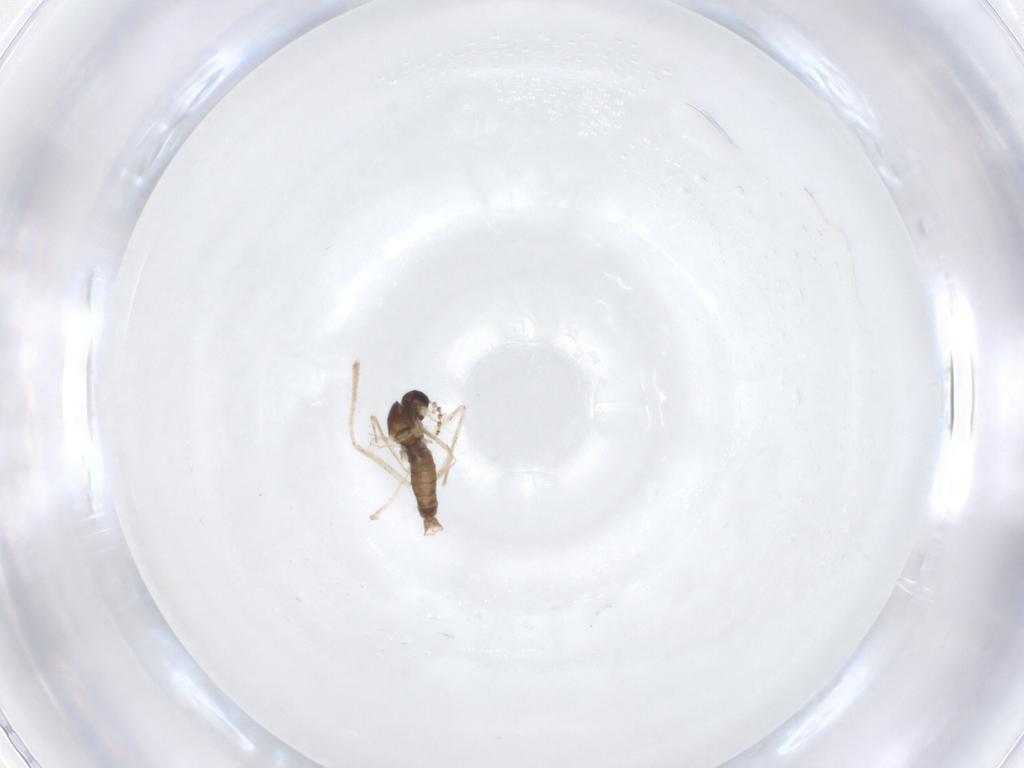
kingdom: Animalia
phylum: Arthropoda
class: Insecta
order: Diptera
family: Cecidomyiidae
